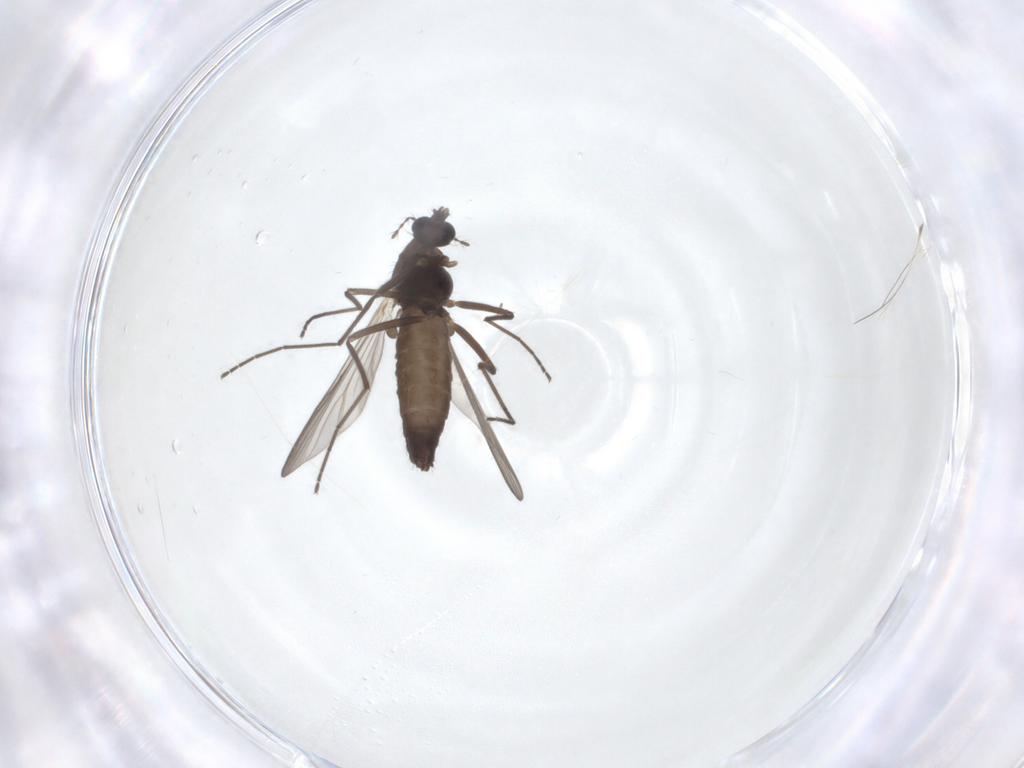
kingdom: Animalia
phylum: Arthropoda
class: Insecta
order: Diptera
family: Chironomidae
